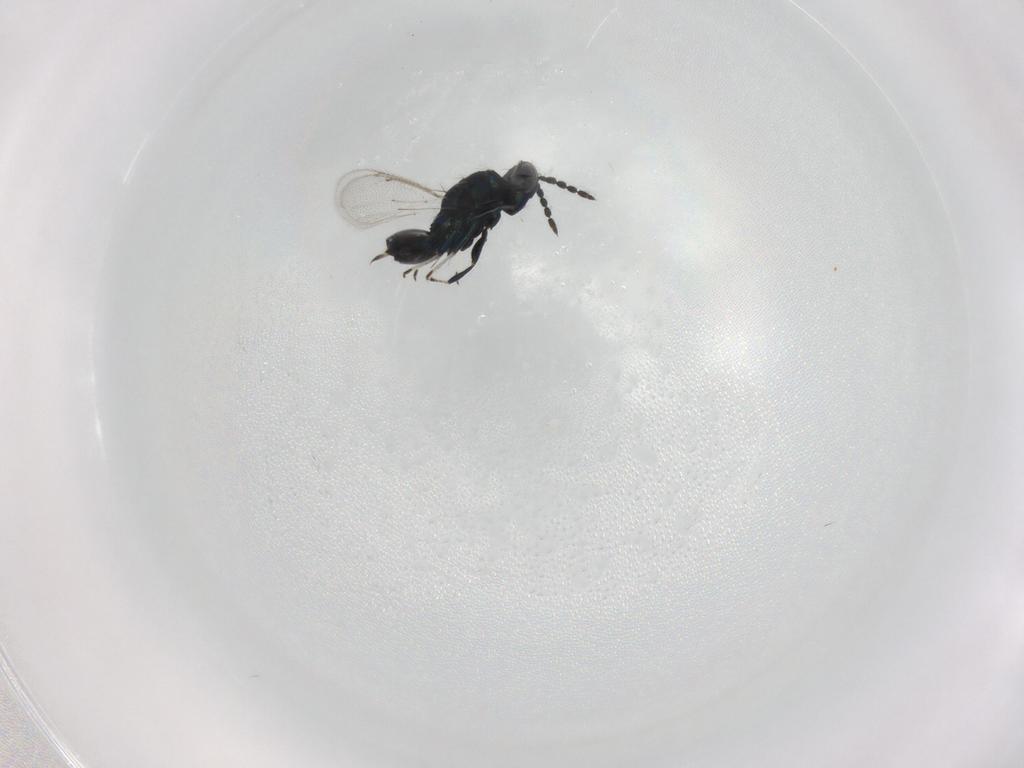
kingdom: Animalia
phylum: Arthropoda
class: Insecta
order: Hymenoptera
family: Eulophidae
